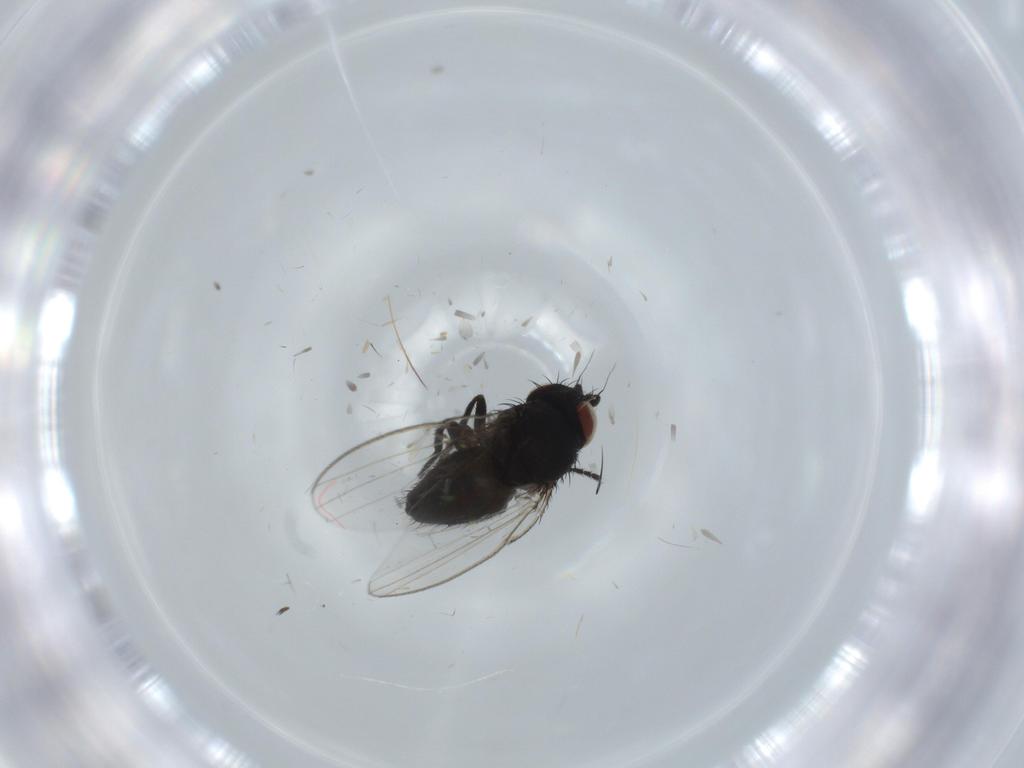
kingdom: Animalia
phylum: Arthropoda
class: Insecta
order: Diptera
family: Milichiidae
